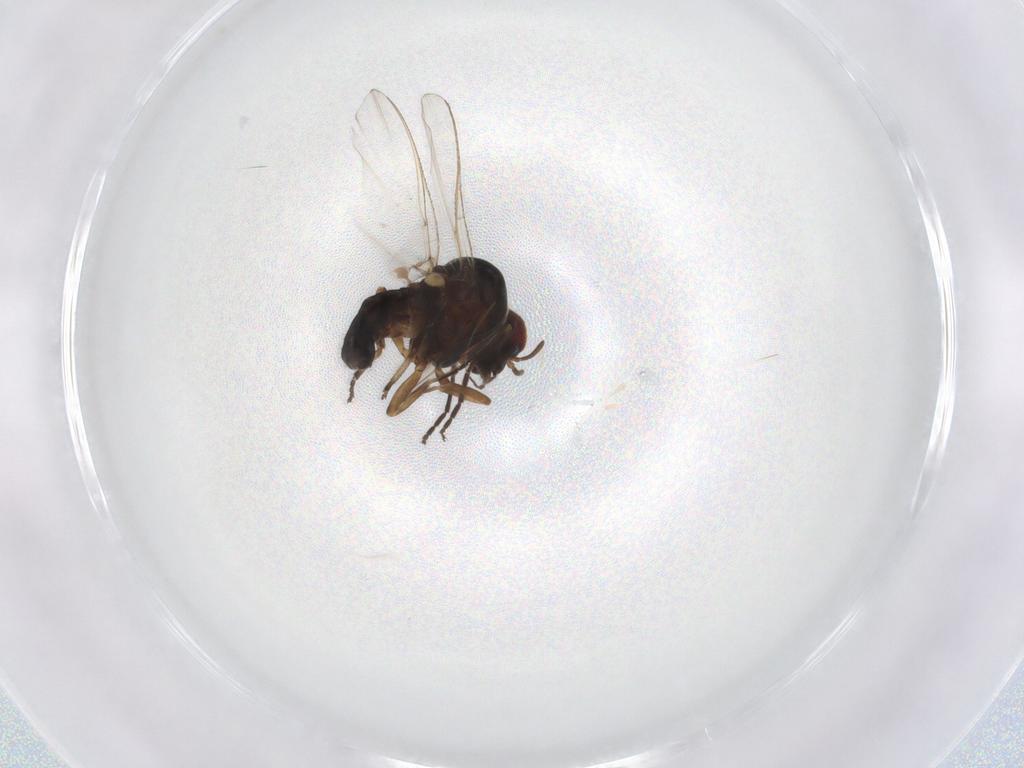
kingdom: Animalia
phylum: Arthropoda
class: Insecta
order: Diptera
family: Simuliidae
